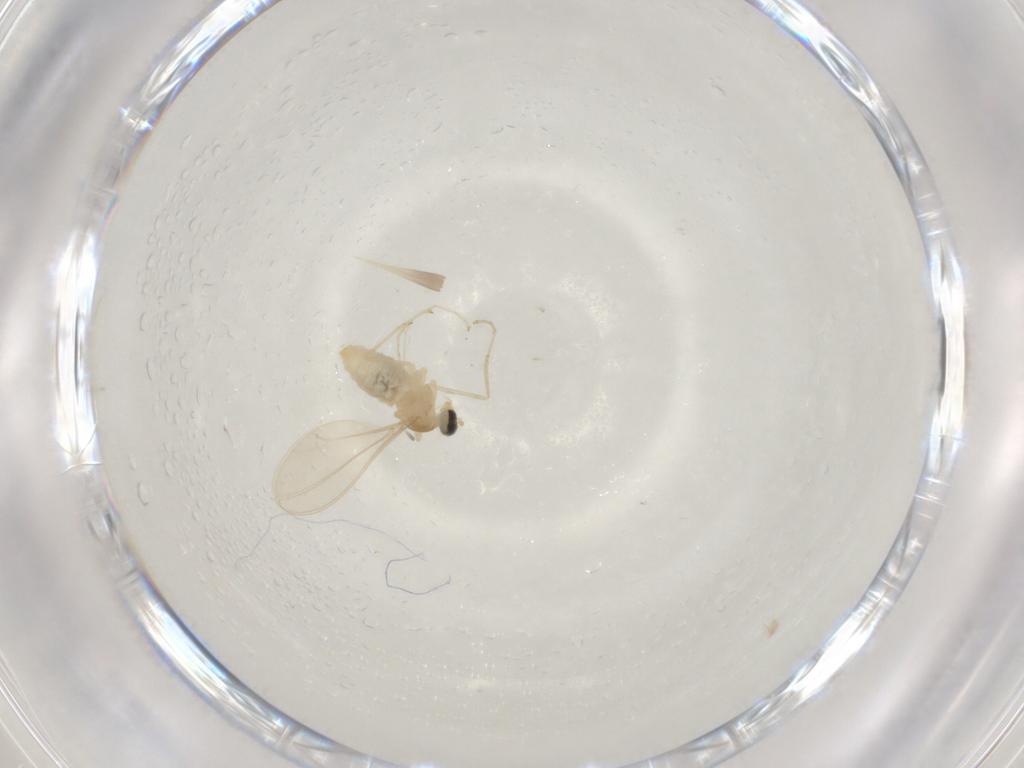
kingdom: Animalia
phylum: Arthropoda
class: Insecta
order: Diptera
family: Cecidomyiidae
